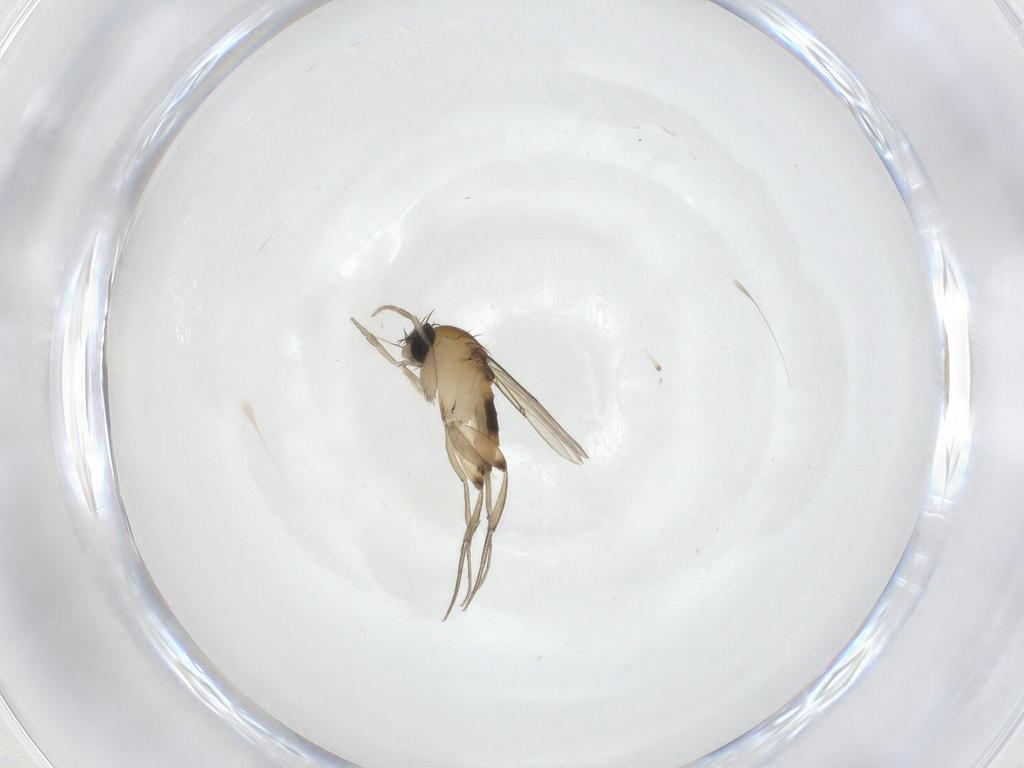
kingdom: Animalia
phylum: Arthropoda
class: Insecta
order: Diptera
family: Phoridae
